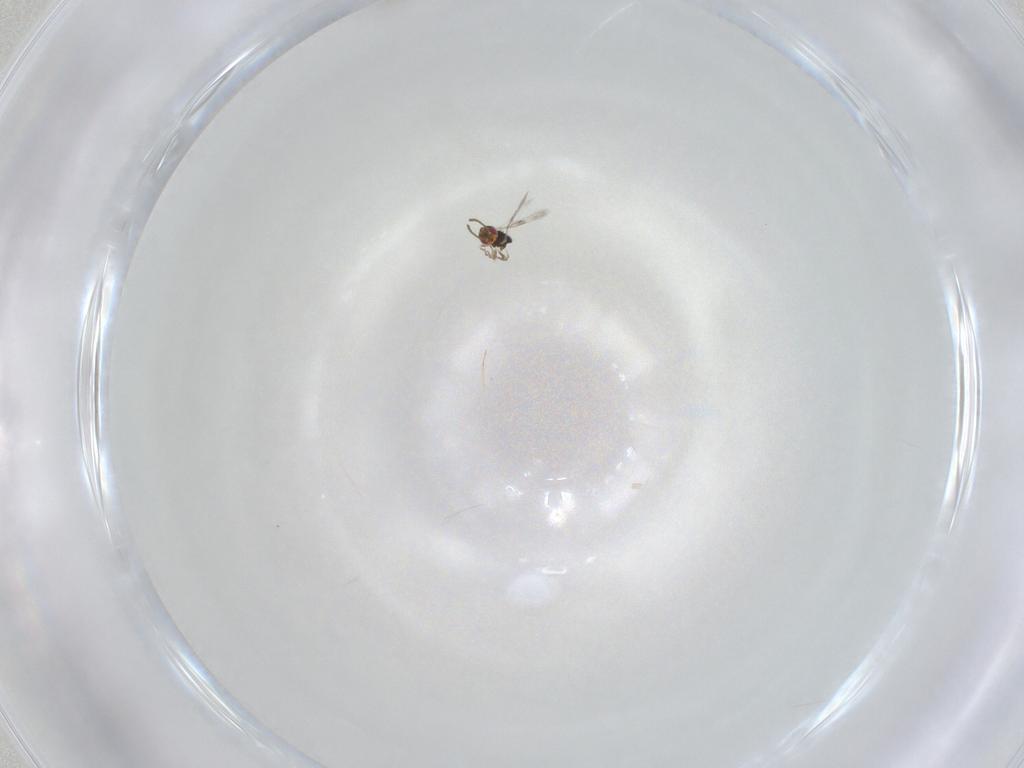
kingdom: Animalia
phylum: Arthropoda
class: Insecta
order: Hymenoptera
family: Azotidae
